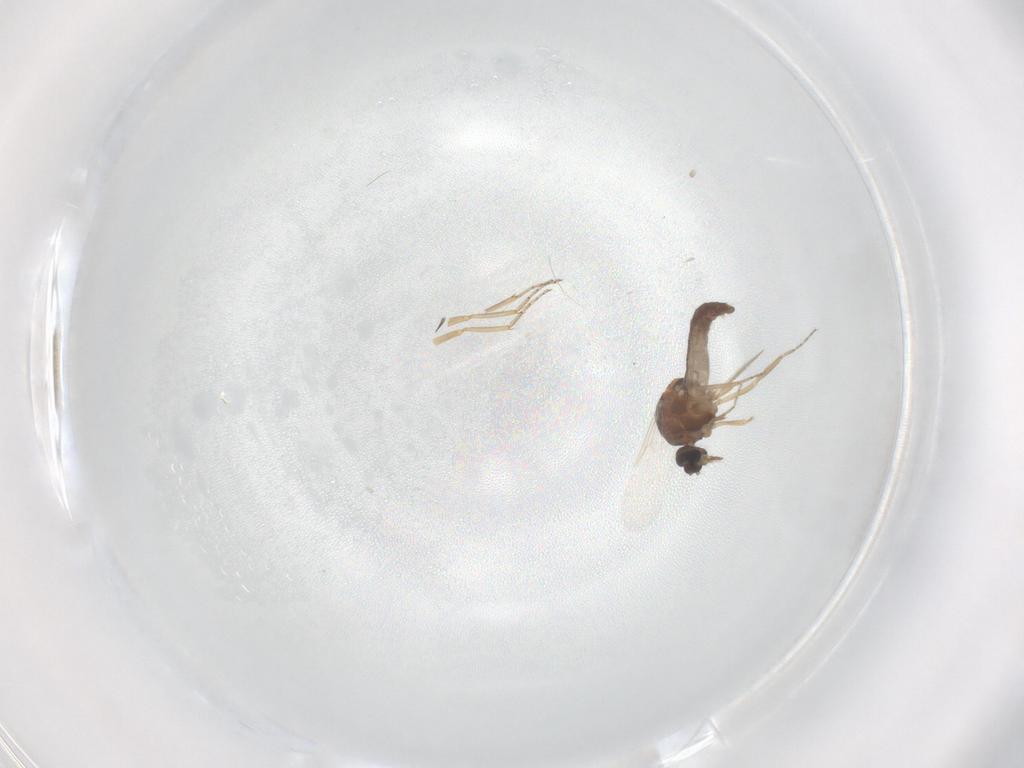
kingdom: Animalia
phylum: Arthropoda
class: Insecta
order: Diptera
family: Ceratopogonidae
